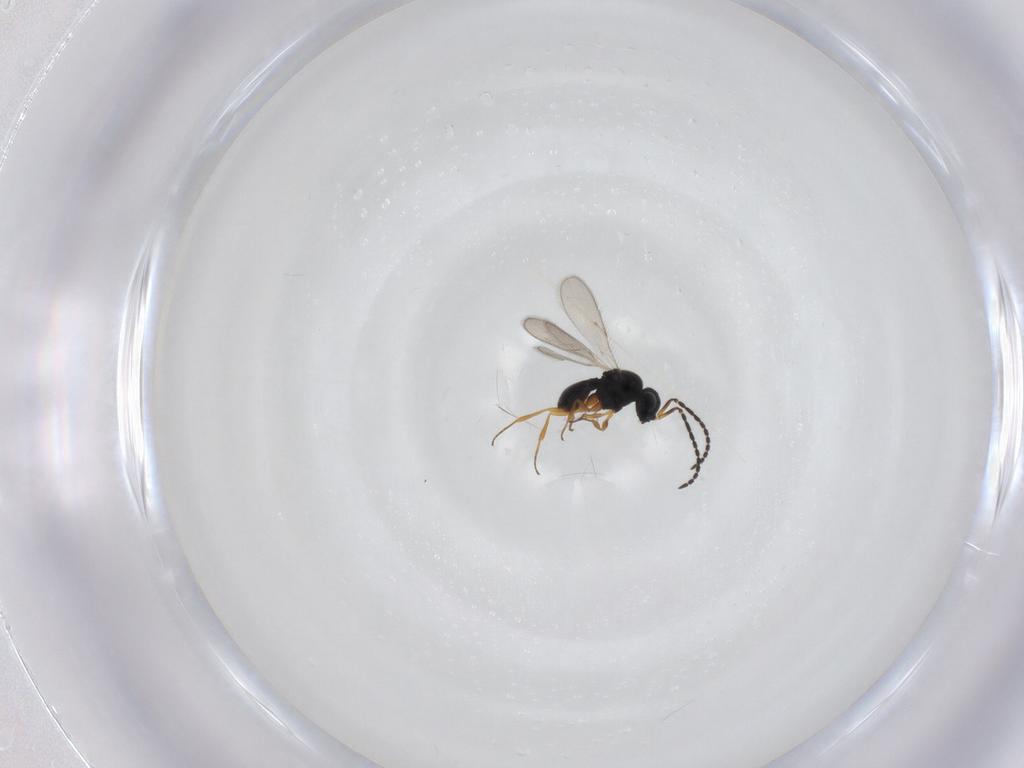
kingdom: Animalia
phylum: Arthropoda
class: Insecta
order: Hymenoptera
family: Scelionidae
